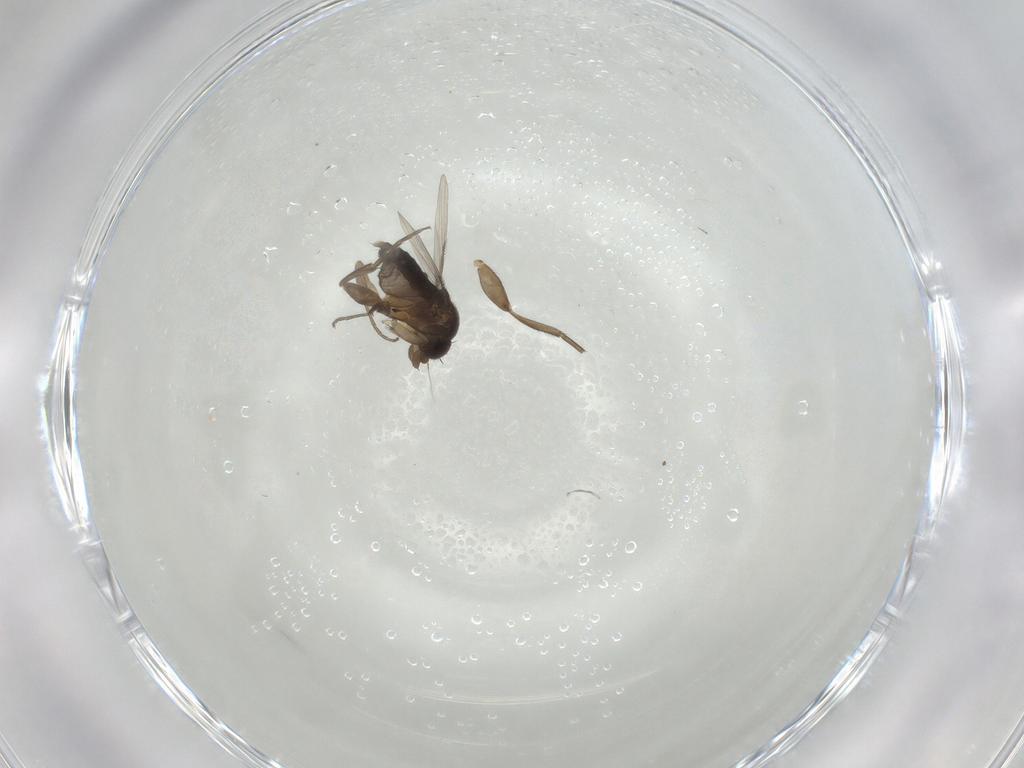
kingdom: Animalia
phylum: Arthropoda
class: Insecta
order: Diptera
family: Phoridae
